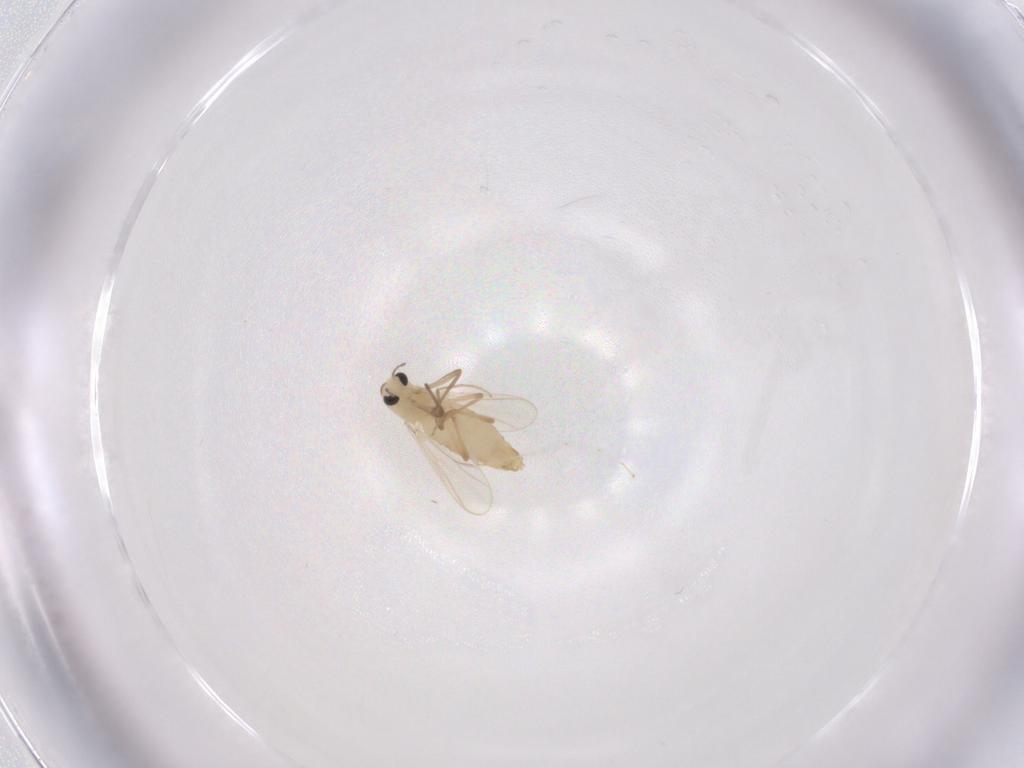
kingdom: Animalia
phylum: Arthropoda
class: Insecta
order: Diptera
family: Chironomidae
